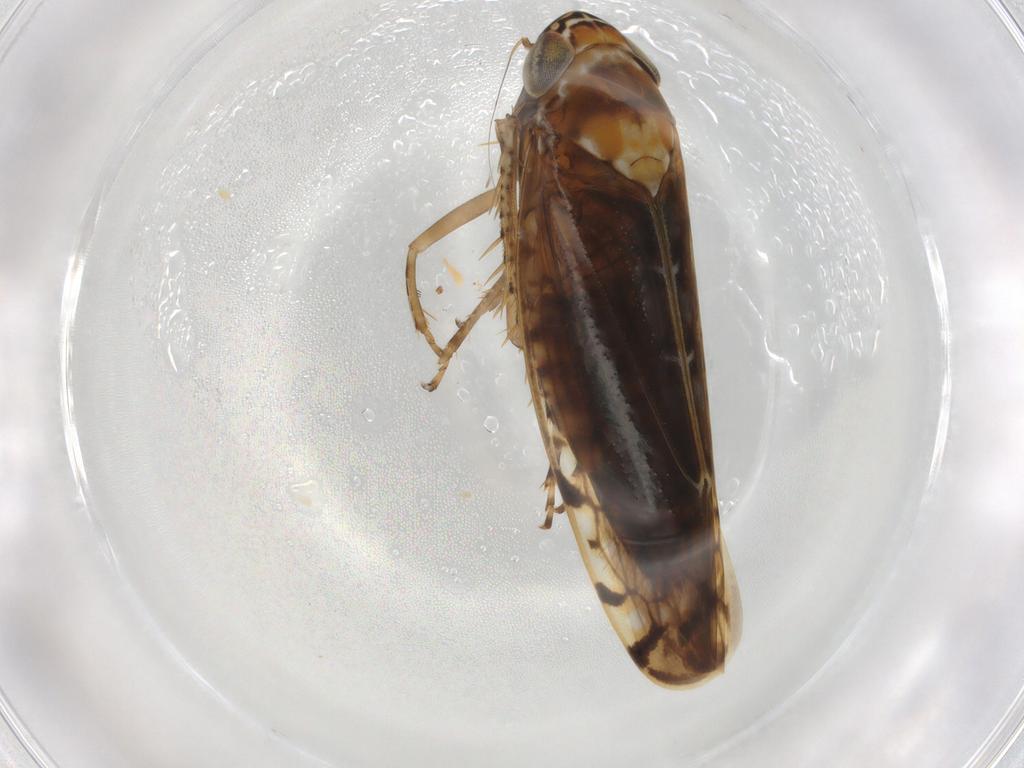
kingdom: Animalia
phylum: Arthropoda
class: Insecta
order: Hemiptera
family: Cicadellidae
